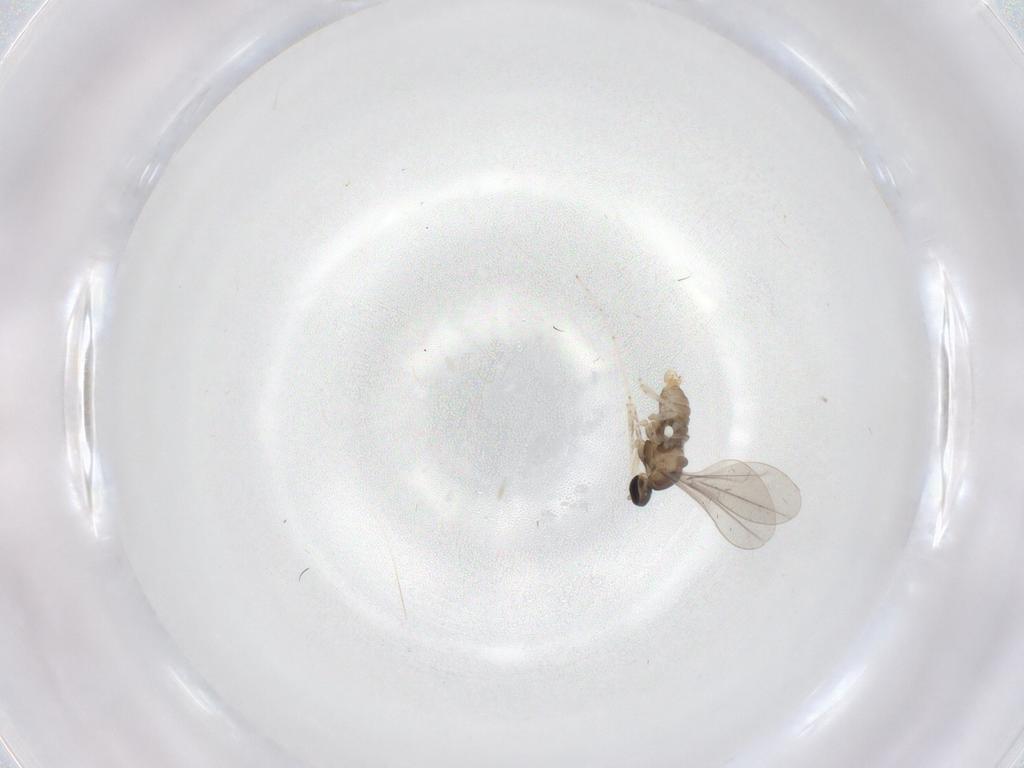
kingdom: Animalia
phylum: Arthropoda
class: Insecta
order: Diptera
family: Cecidomyiidae
